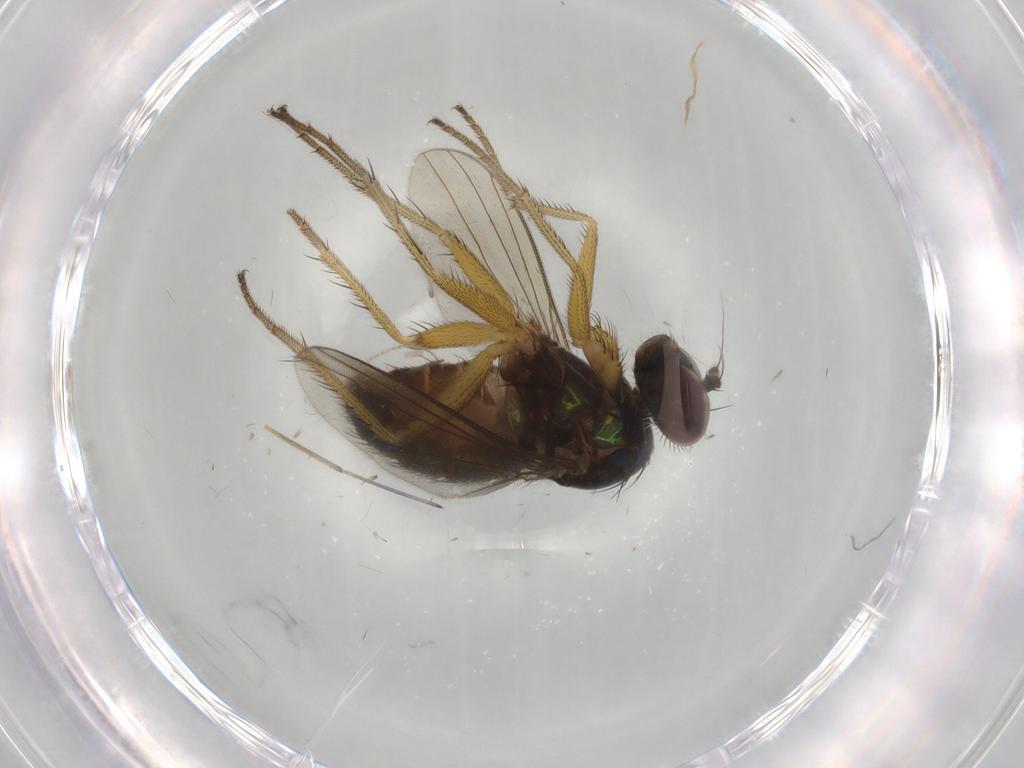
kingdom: Animalia
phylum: Arthropoda
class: Insecta
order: Diptera
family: Dolichopodidae
